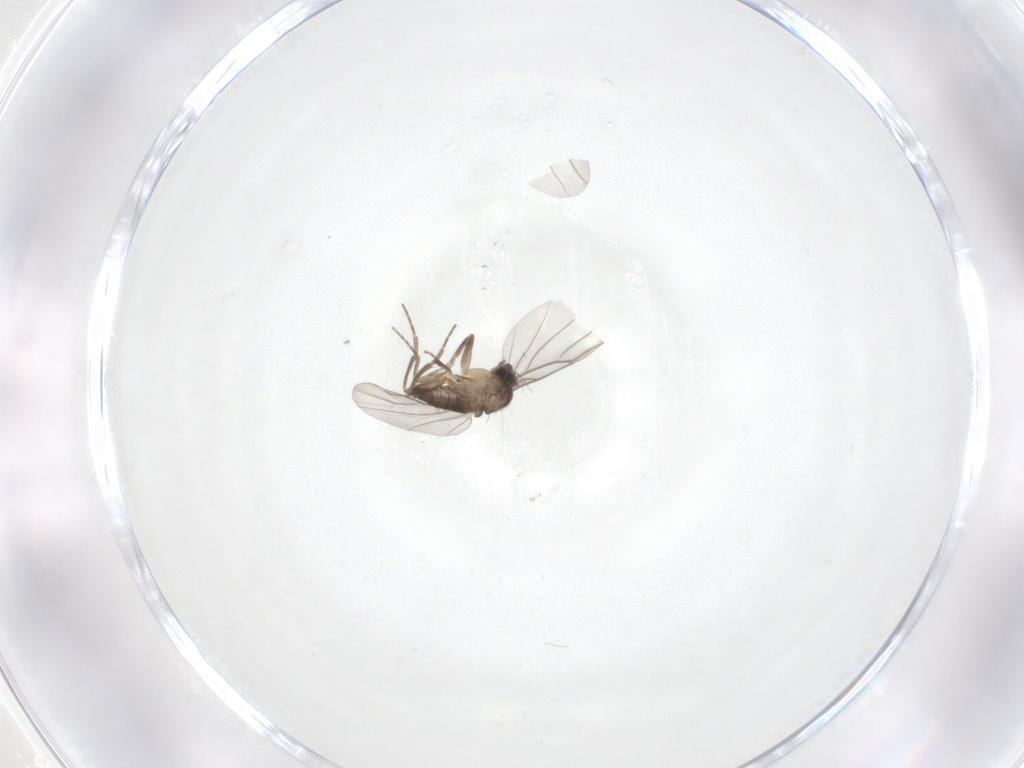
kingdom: Animalia
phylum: Arthropoda
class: Insecta
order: Diptera
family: Phoridae
